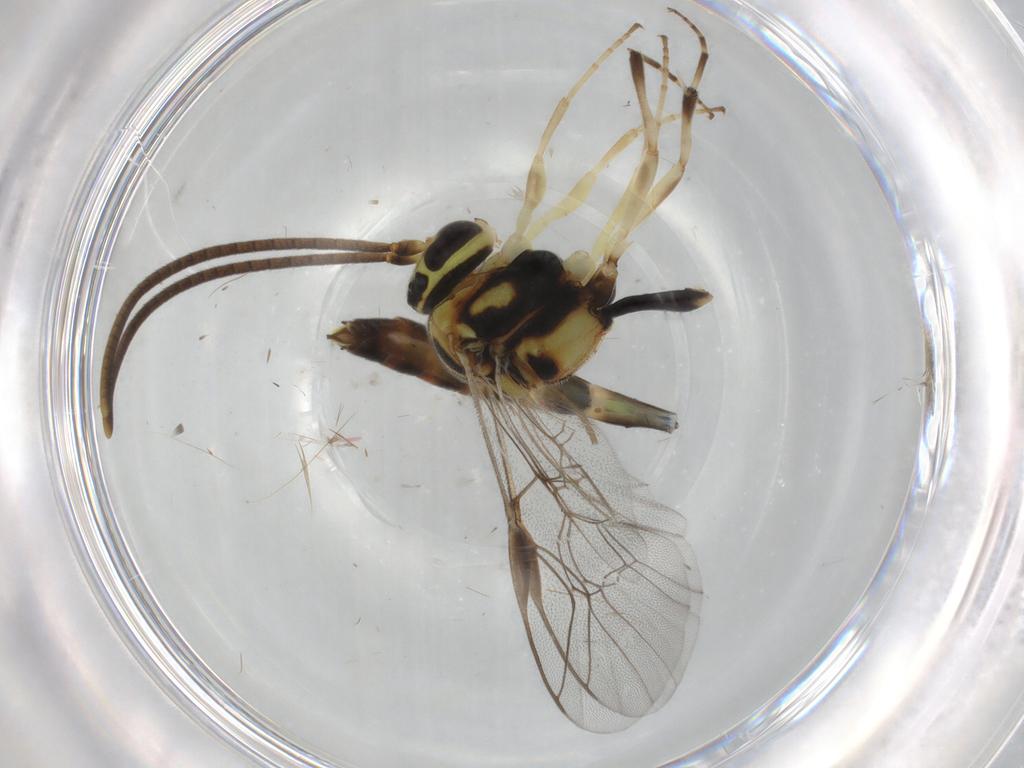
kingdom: Animalia
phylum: Arthropoda
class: Insecta
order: Hymenoptera
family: Ichneumonidae
